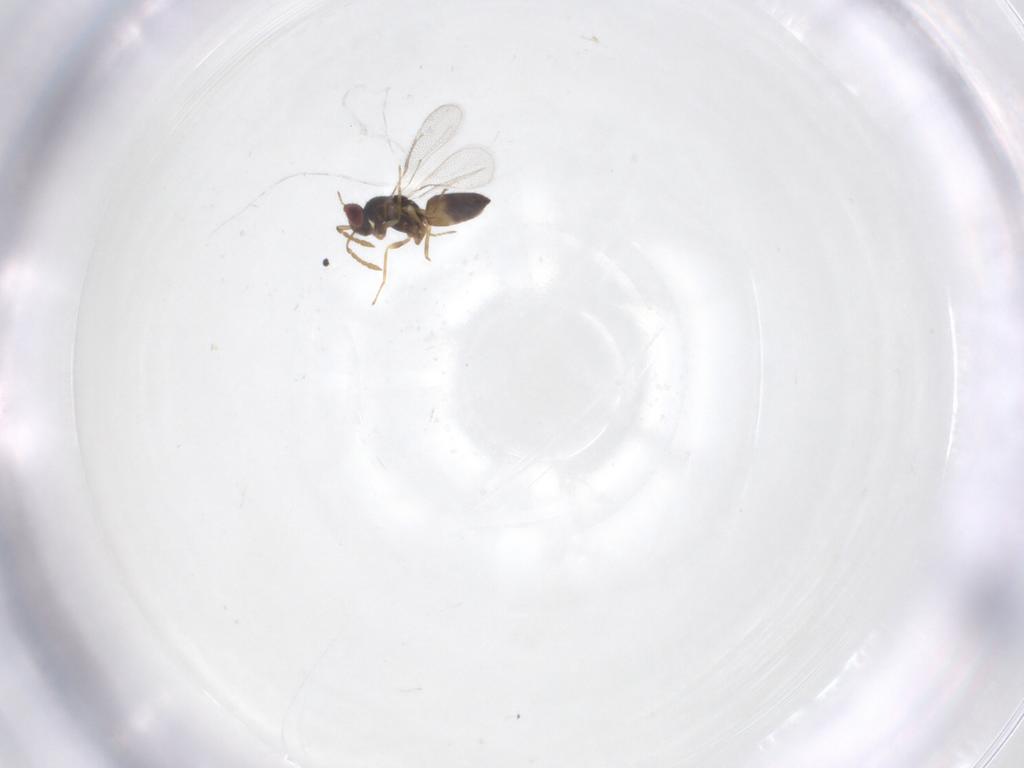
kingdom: Animalia
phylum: Arthropoda
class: Insecta
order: Hymenoptera
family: Eulophidae
